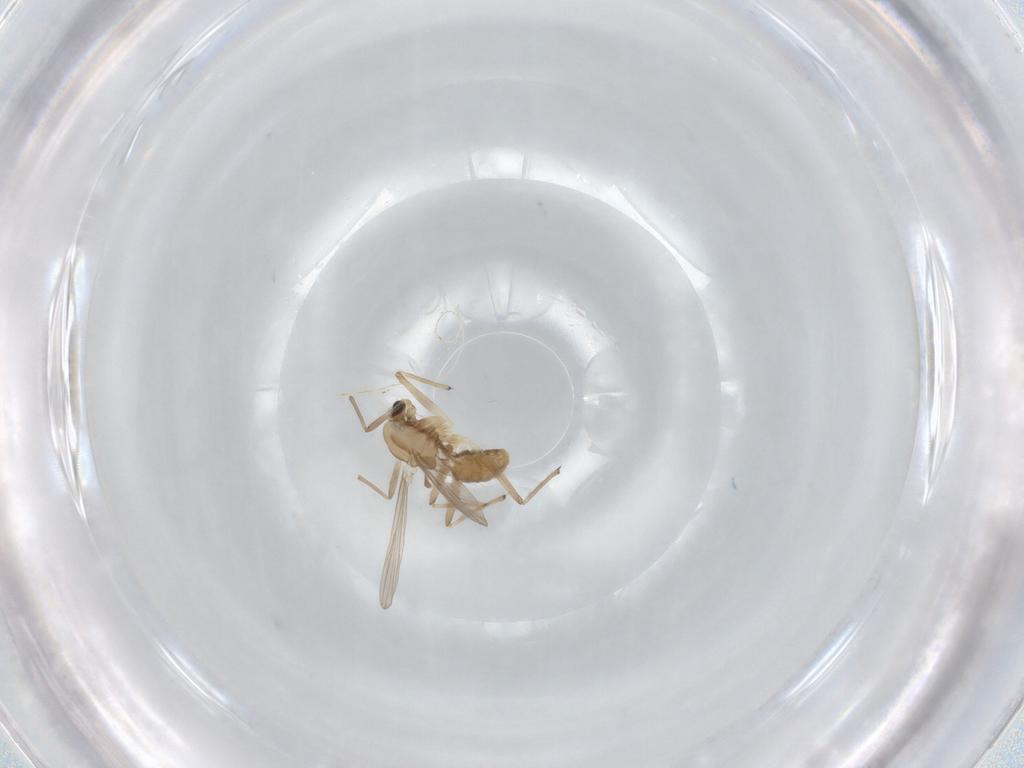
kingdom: Animalia
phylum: Arthropoda
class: Insecta
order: Diptera
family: Chironomidae
